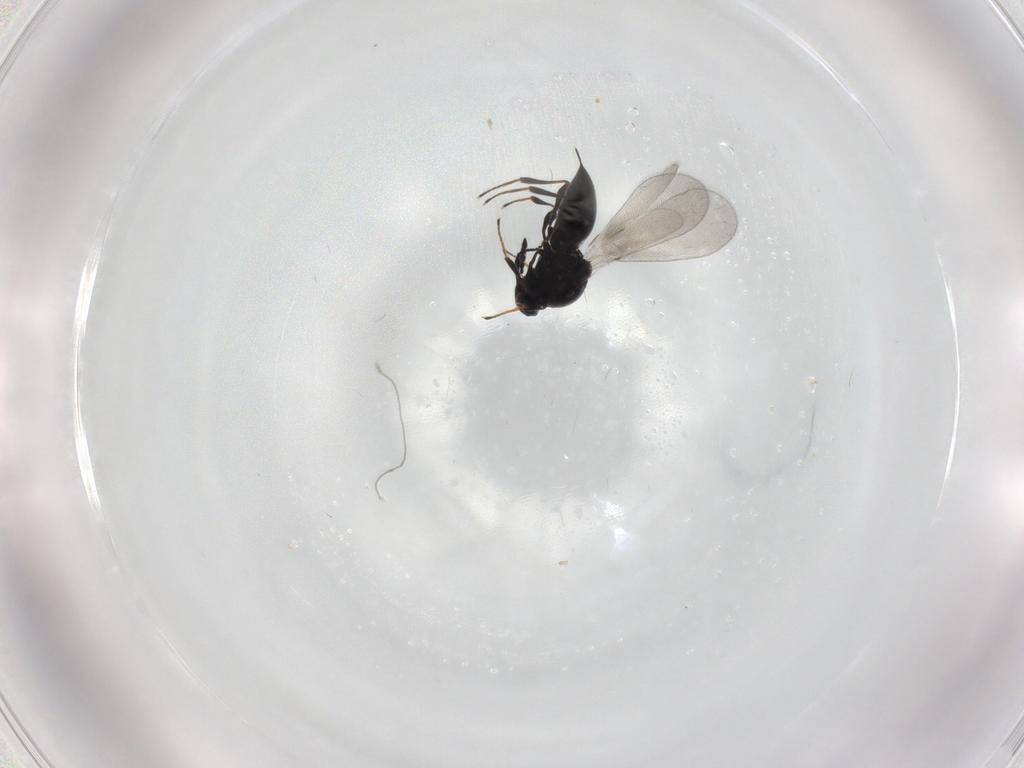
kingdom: Animalia
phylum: Arthropoda
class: Insecta
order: Hymenoptera
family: Platygastridae
